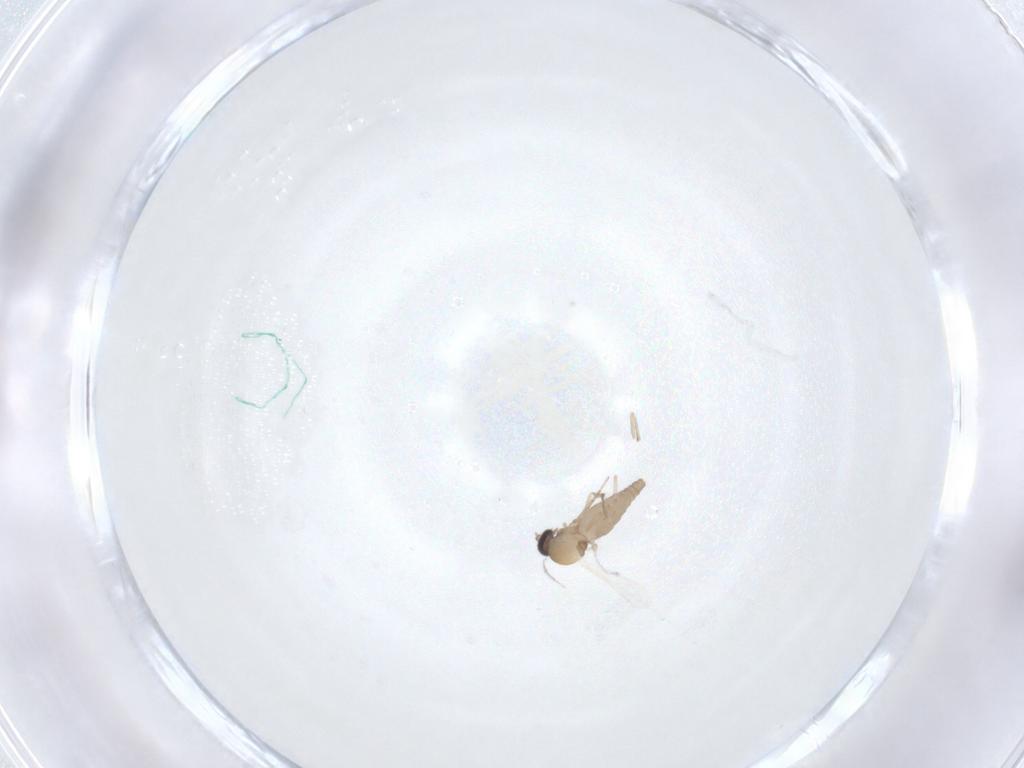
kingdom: Animalia
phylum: Arthropoda
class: Insecta
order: Diptera
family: Ceratopogonidae
